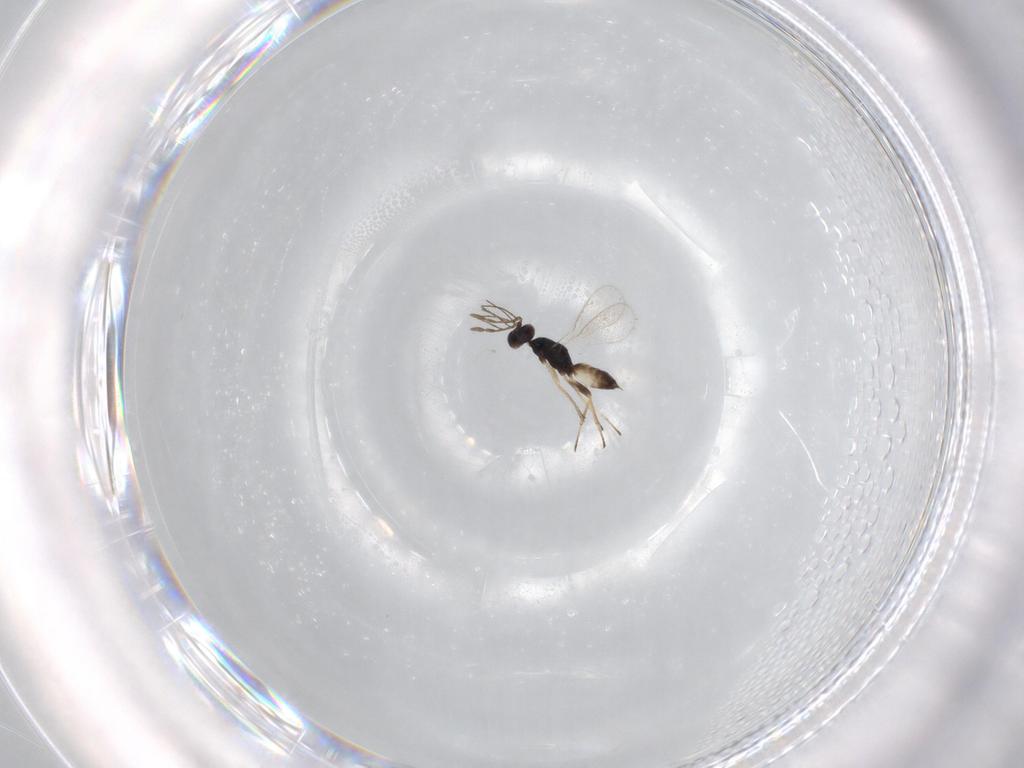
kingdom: Animalia
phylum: Arthropoda
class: Insecta
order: Hymenoptera
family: Eulophidae
